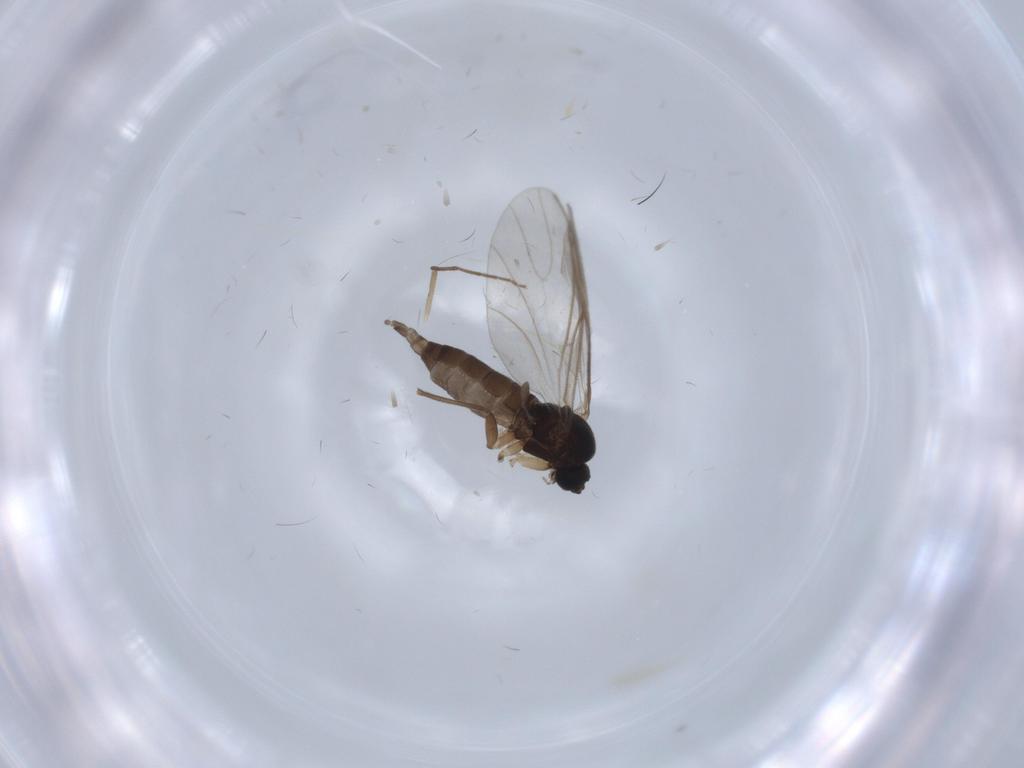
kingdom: Animalia
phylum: Arthropoda
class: Insecta
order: Diptera
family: Sciaridae
